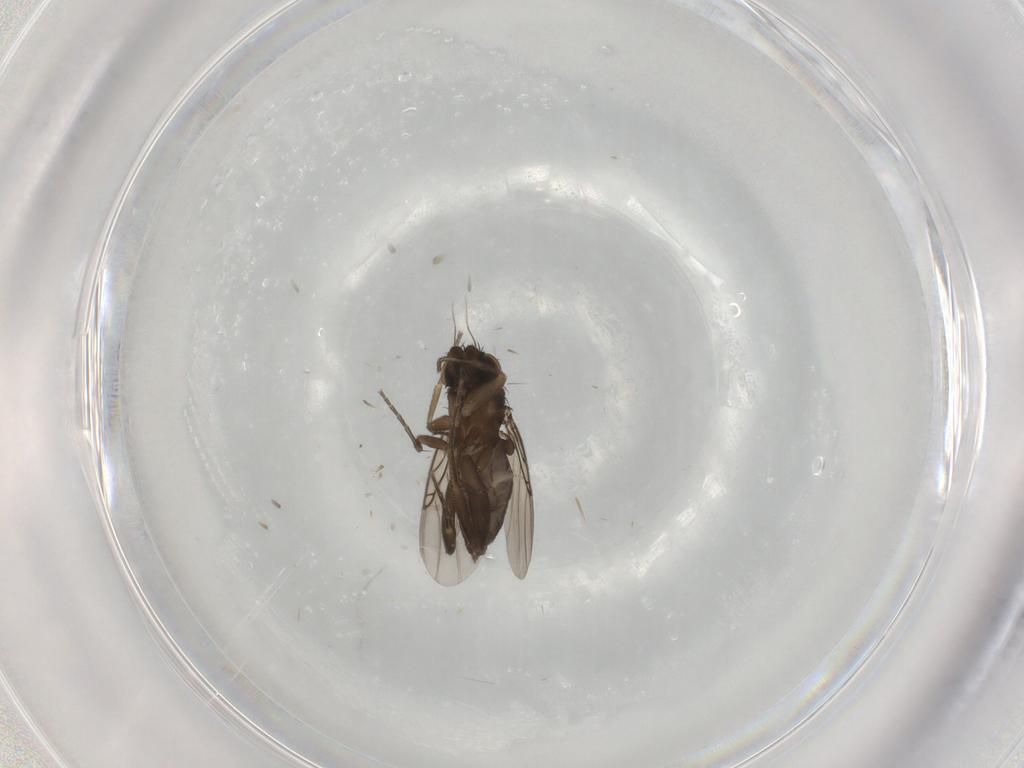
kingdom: Animalia
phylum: Arthropoda
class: Insecta
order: Diptera
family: Phoridae
